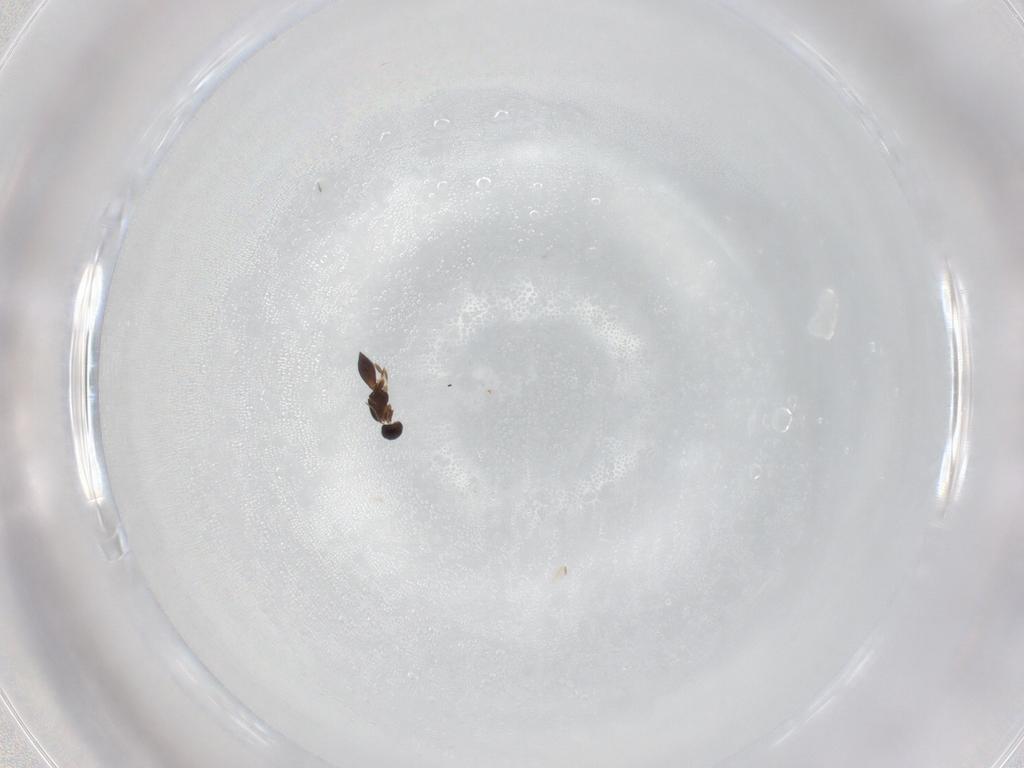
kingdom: Animalia
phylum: Arthropoda
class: Insecta
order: Hymenoptera
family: Scelionidae
